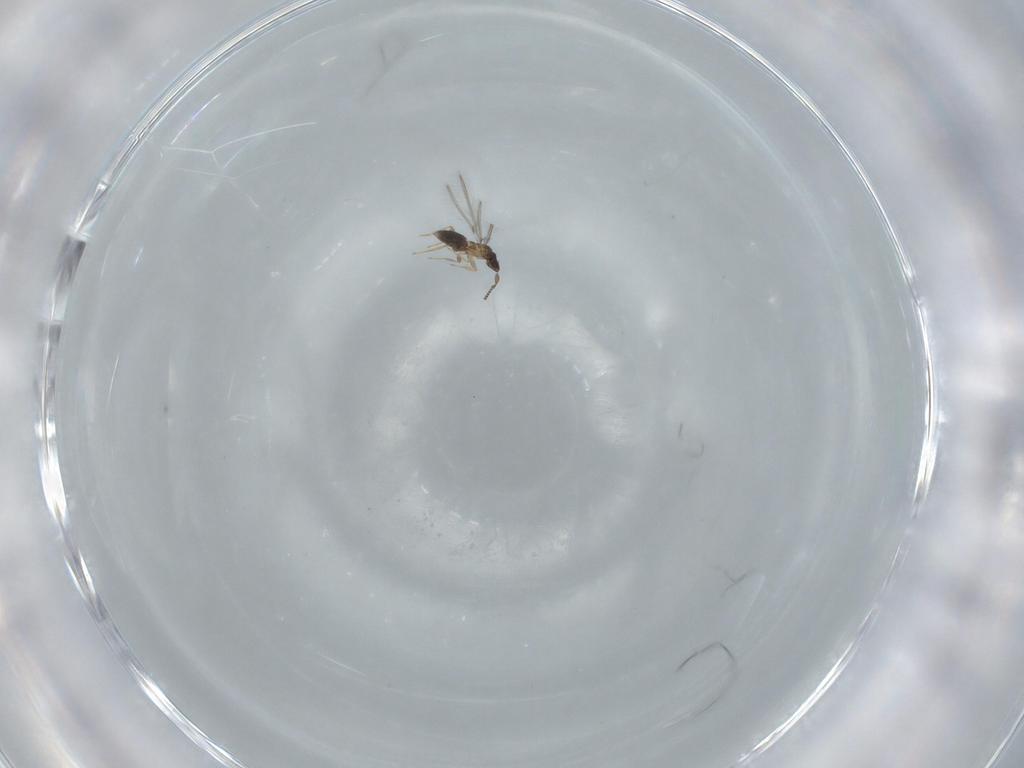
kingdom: Animalia
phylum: Arthropoda
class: Insecta
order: Hymenoptera
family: Mymaridae
